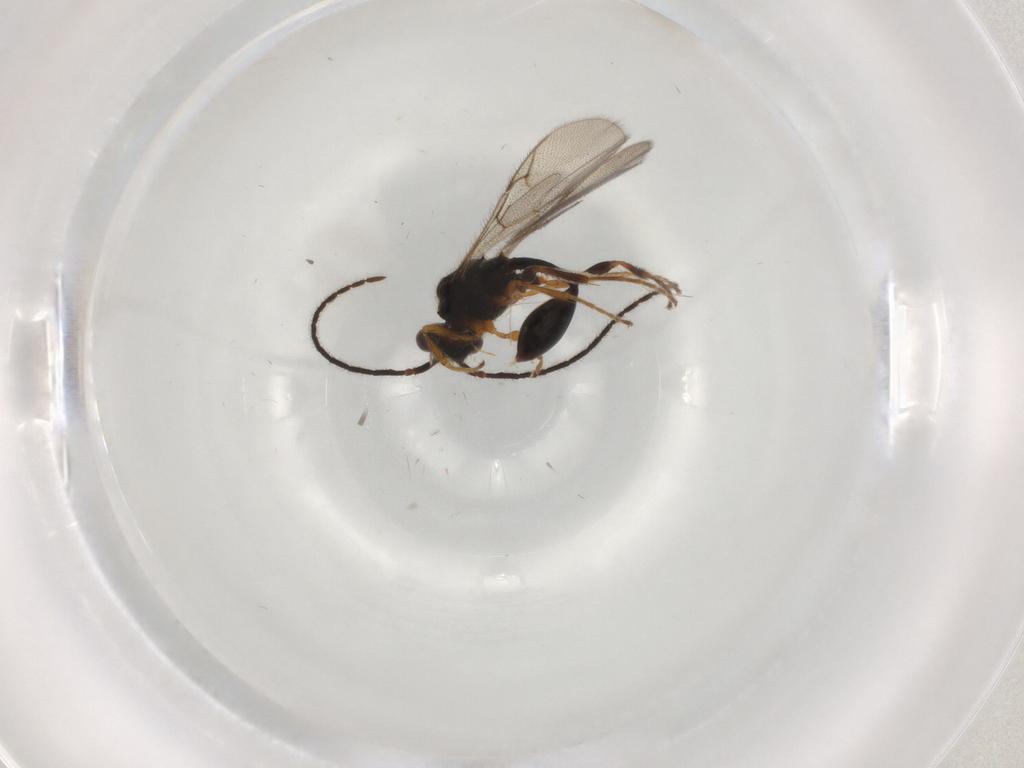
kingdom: Animalia
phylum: Arthropoda
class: Insecta
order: Hymenoptera
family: Diapriidae
